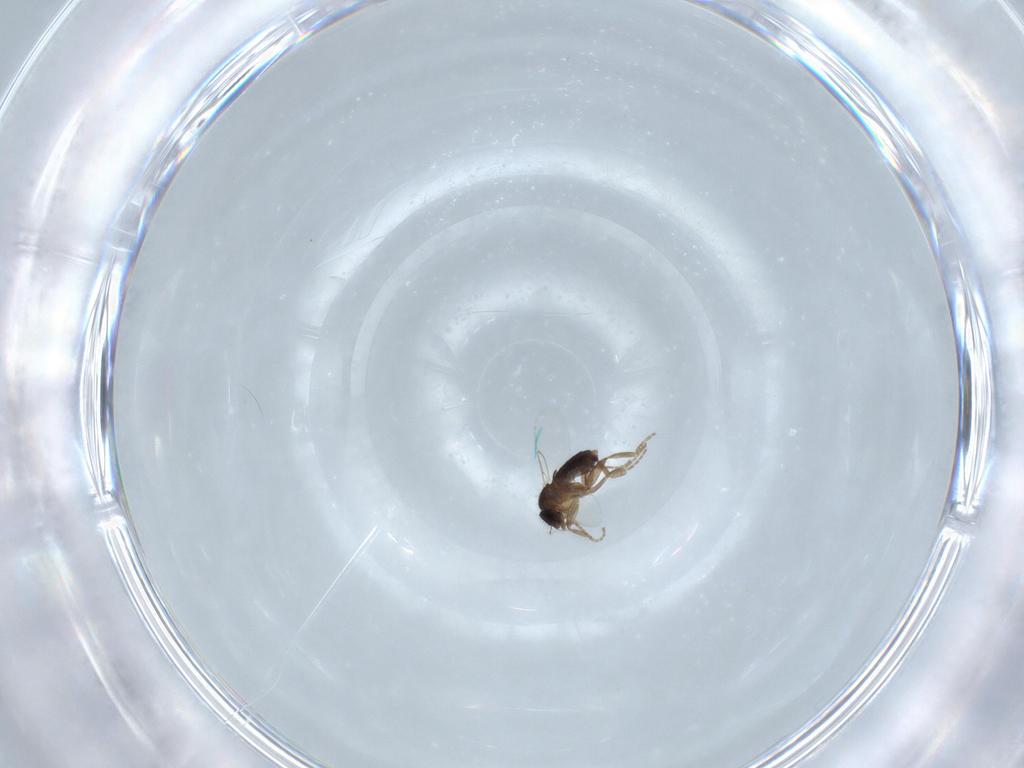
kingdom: Animalia
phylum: Arthropoda
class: Insecta
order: Diptera
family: Phoridae
